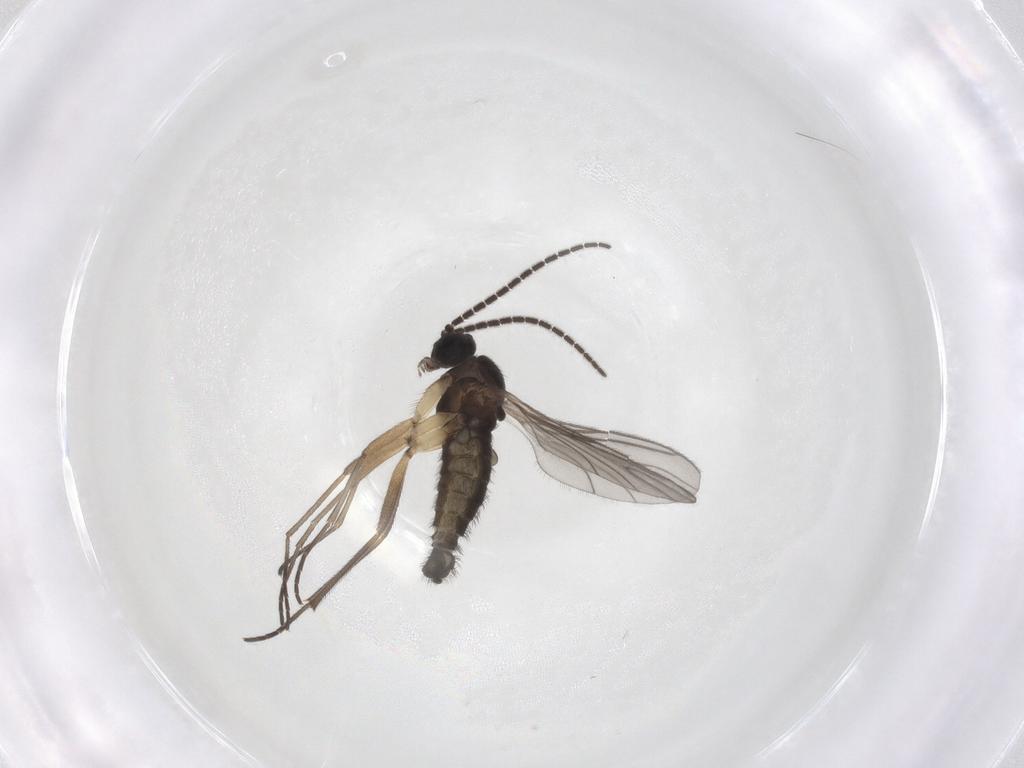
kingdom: Animalia
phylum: Arthropoda
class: Insecta
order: Diptera
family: Sciaridae
